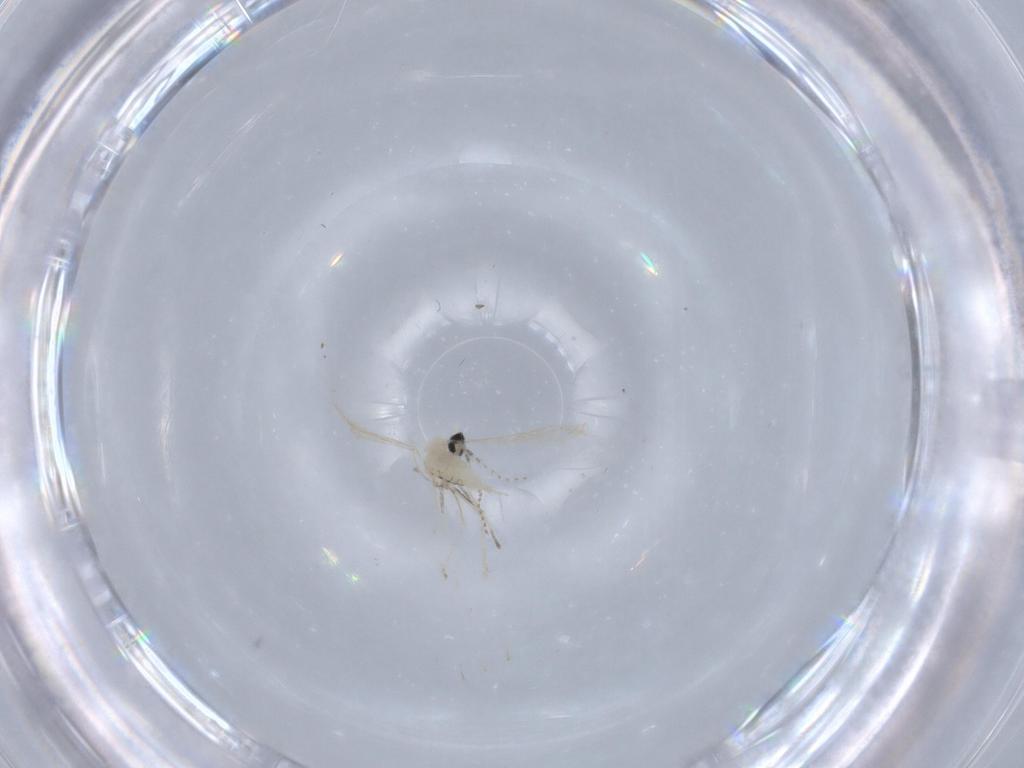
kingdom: Animalia
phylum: Arthropoda
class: Insecta
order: Diptera
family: Cecidomyiidae
